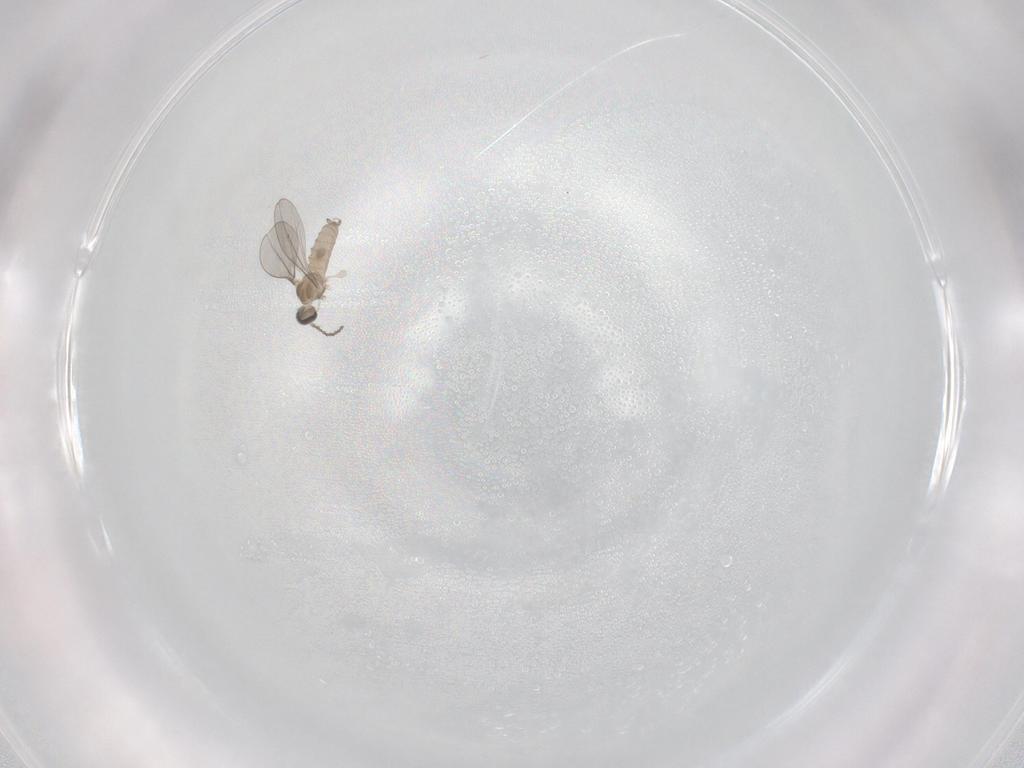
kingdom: Animalia
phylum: Arthropoda
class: Insecta
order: Diptera
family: Cecidomyiidae
